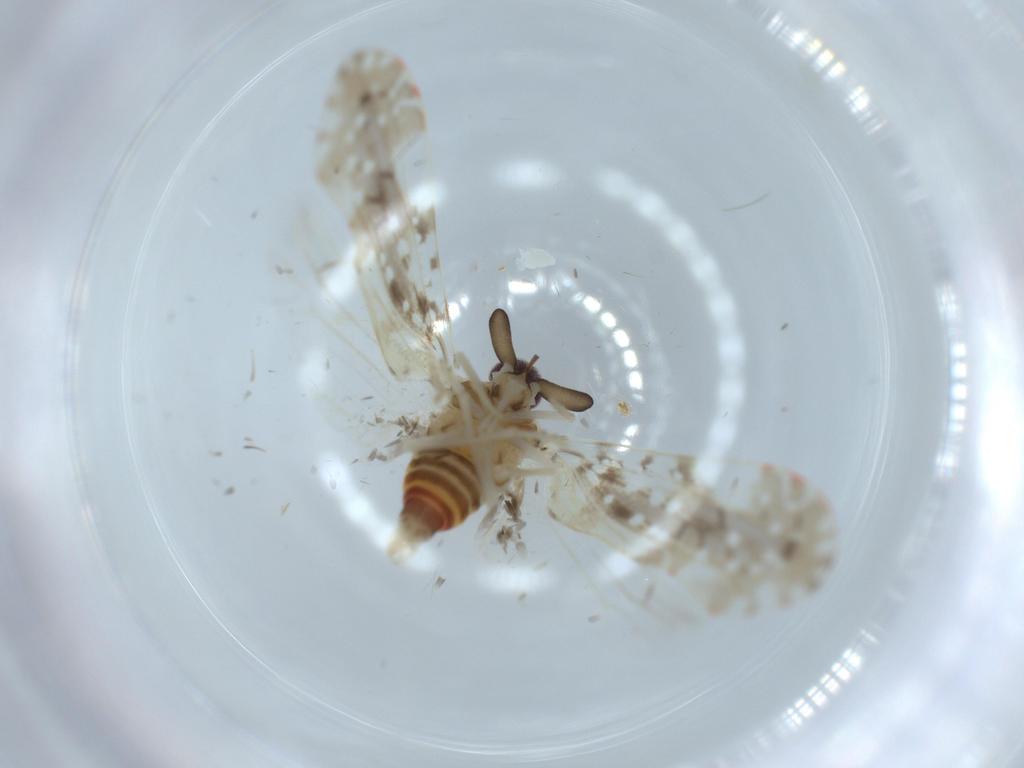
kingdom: Animalia
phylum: Arthropoda
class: Insecta
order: Hemiptera
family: Derbidae
